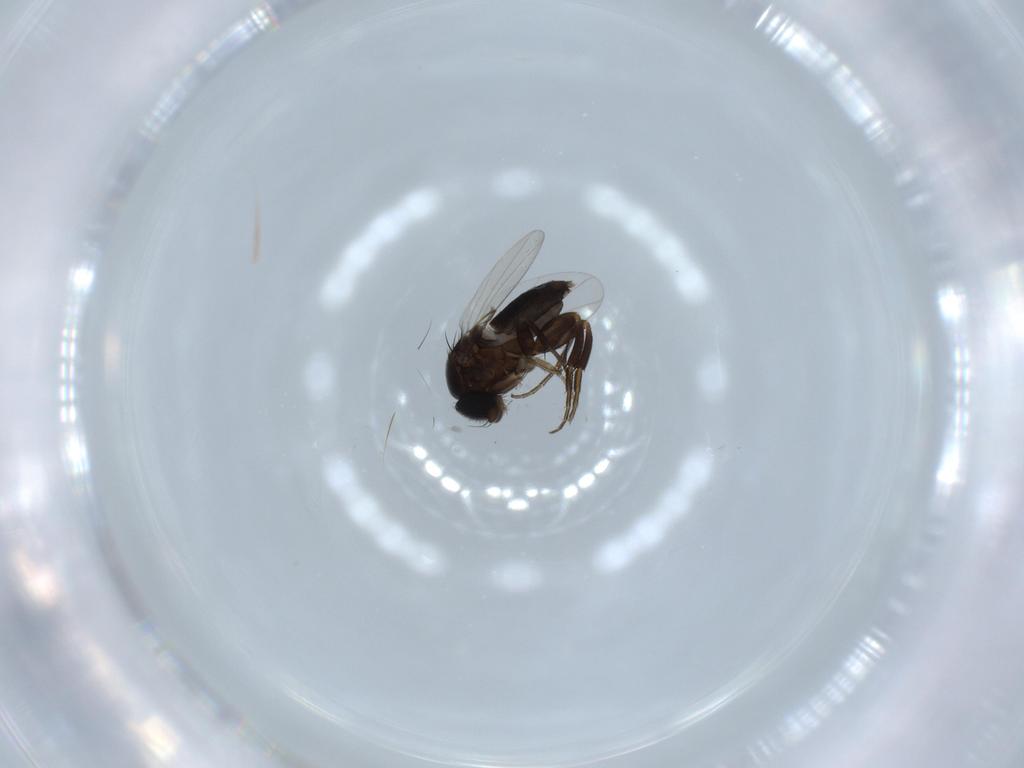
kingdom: Animalia
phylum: Arthropoda
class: Insecta
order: Diptera
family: Phoridae
